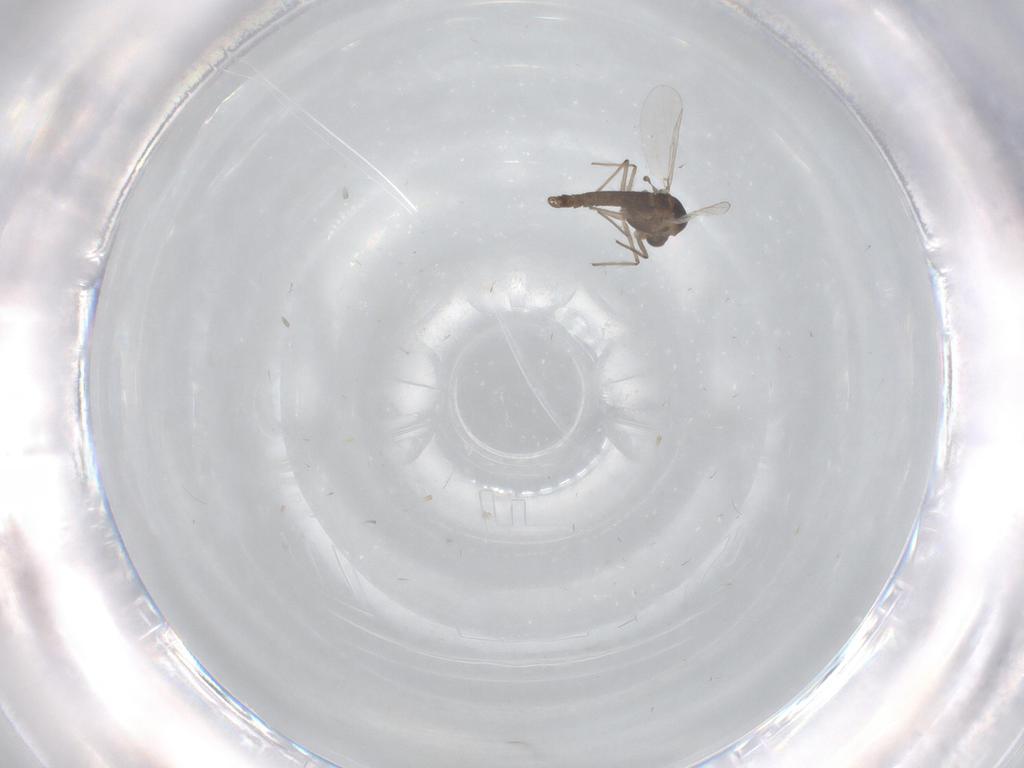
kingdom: Animalia
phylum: Arthropoda
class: Insecta
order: Diptera
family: Chironomidae
